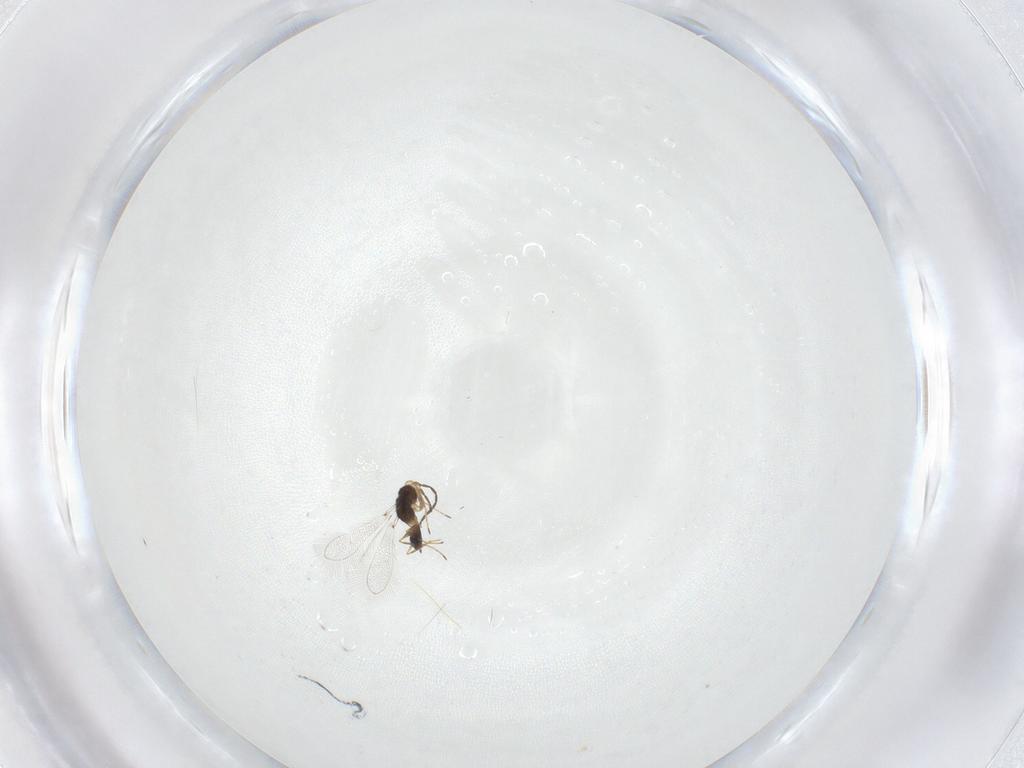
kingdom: Animalia
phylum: Arthropoda
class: Insecta
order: Hymenoptera
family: Mymaridae
